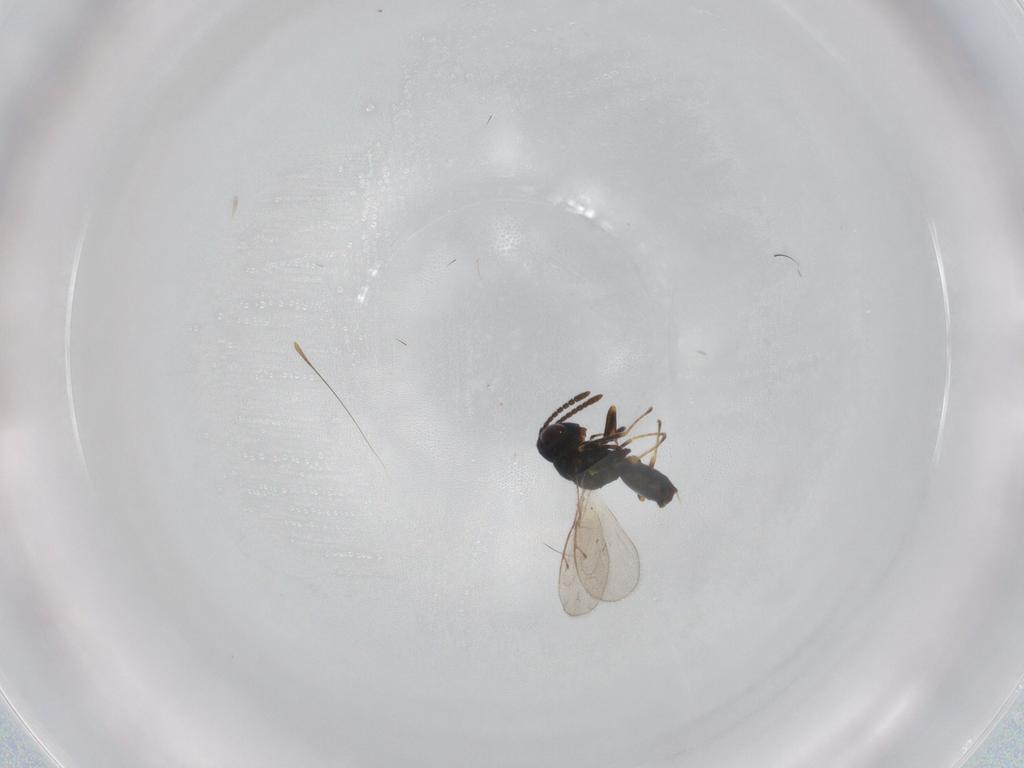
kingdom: Animalia
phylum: Arthropoda
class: Insecta
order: Hymenoptera
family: Pteromalidae
